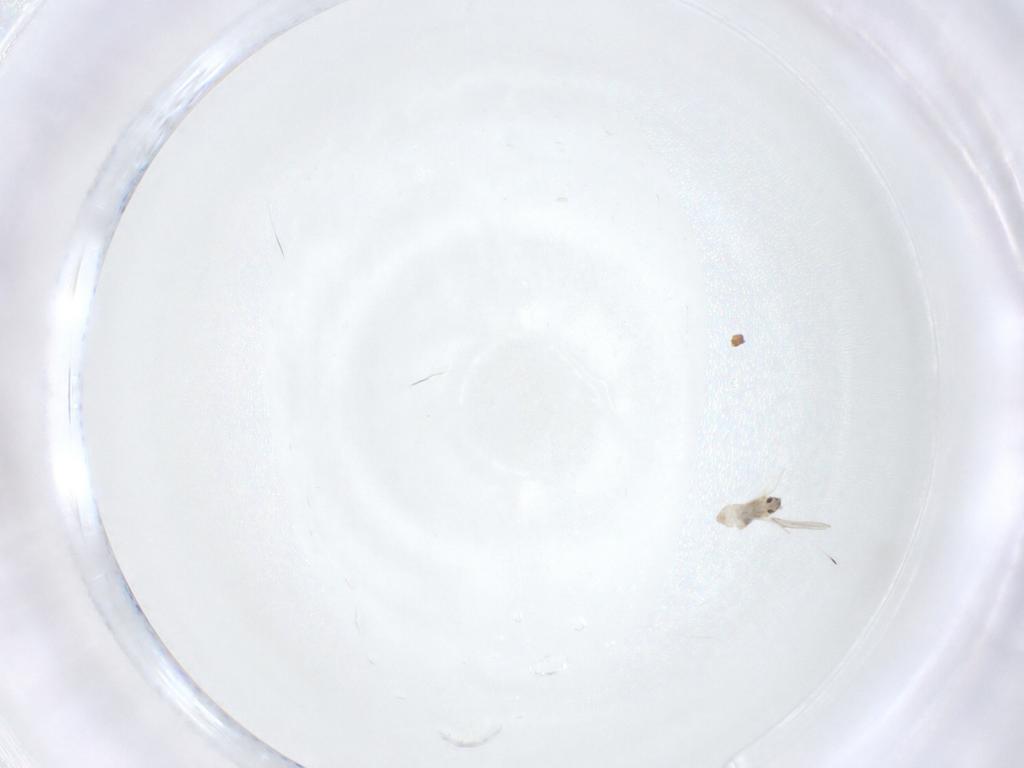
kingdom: Animalia
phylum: Arthropoda
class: Insecta
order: Diptera
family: Cecidomyiidae
